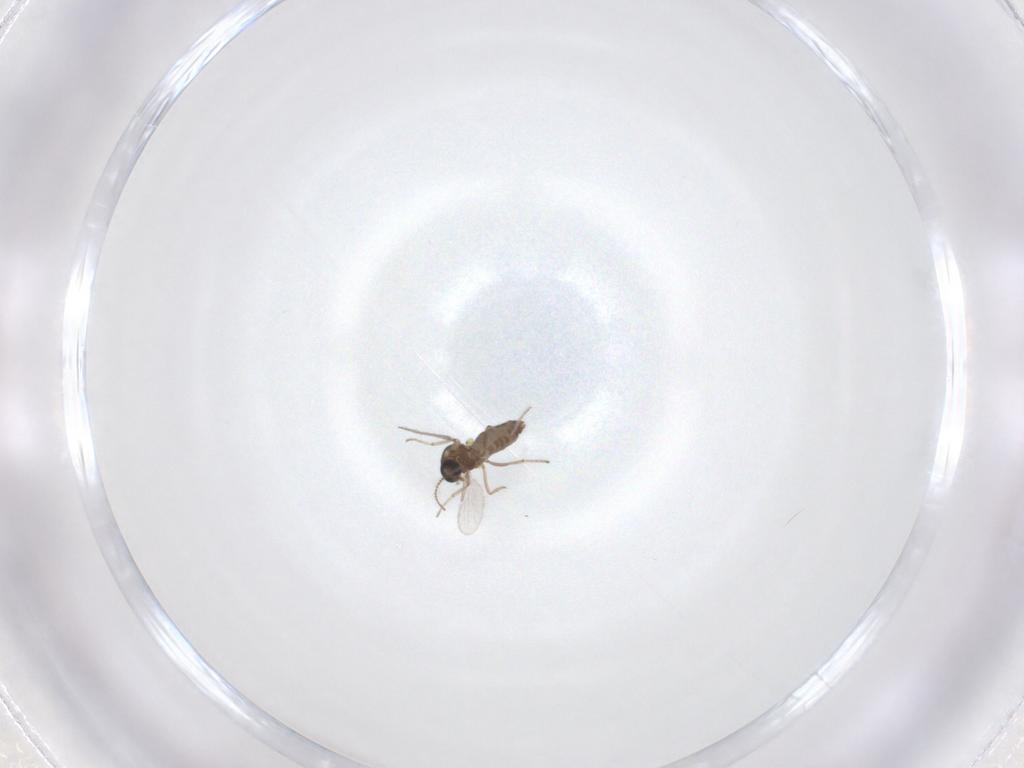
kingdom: Animalia
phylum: Arthropoda
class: Insecta
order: Diptera
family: Ceratopogonidae
